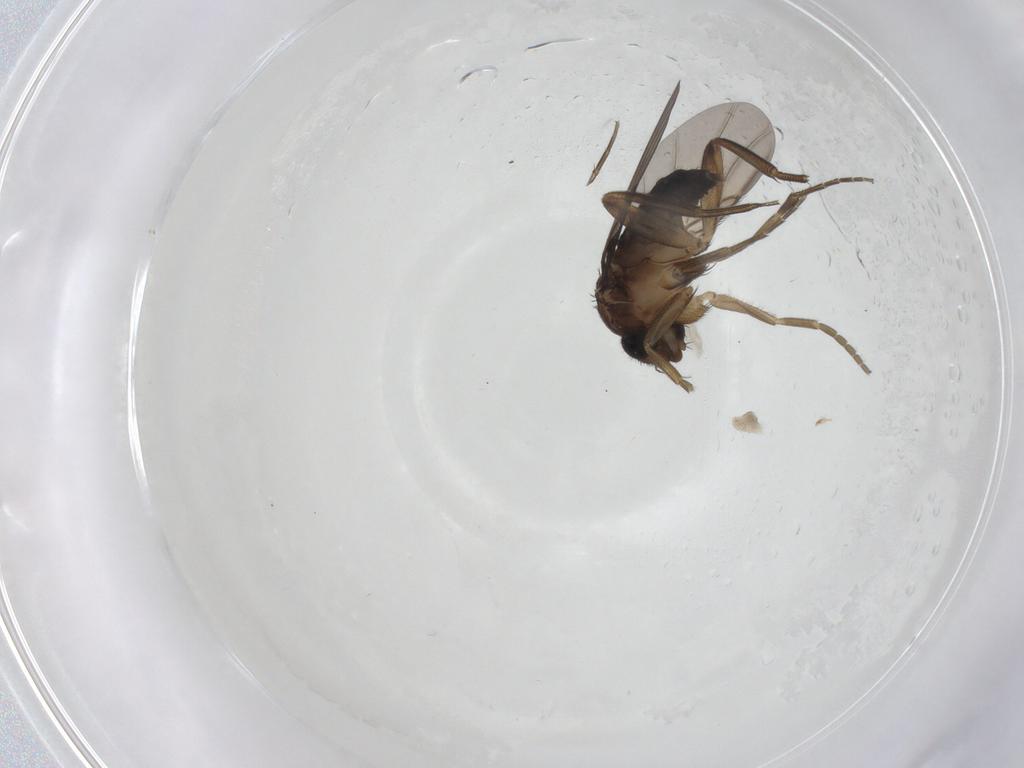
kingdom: Animalia
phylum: Arthropoda
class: Insecta
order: Diptera
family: Phoridae
